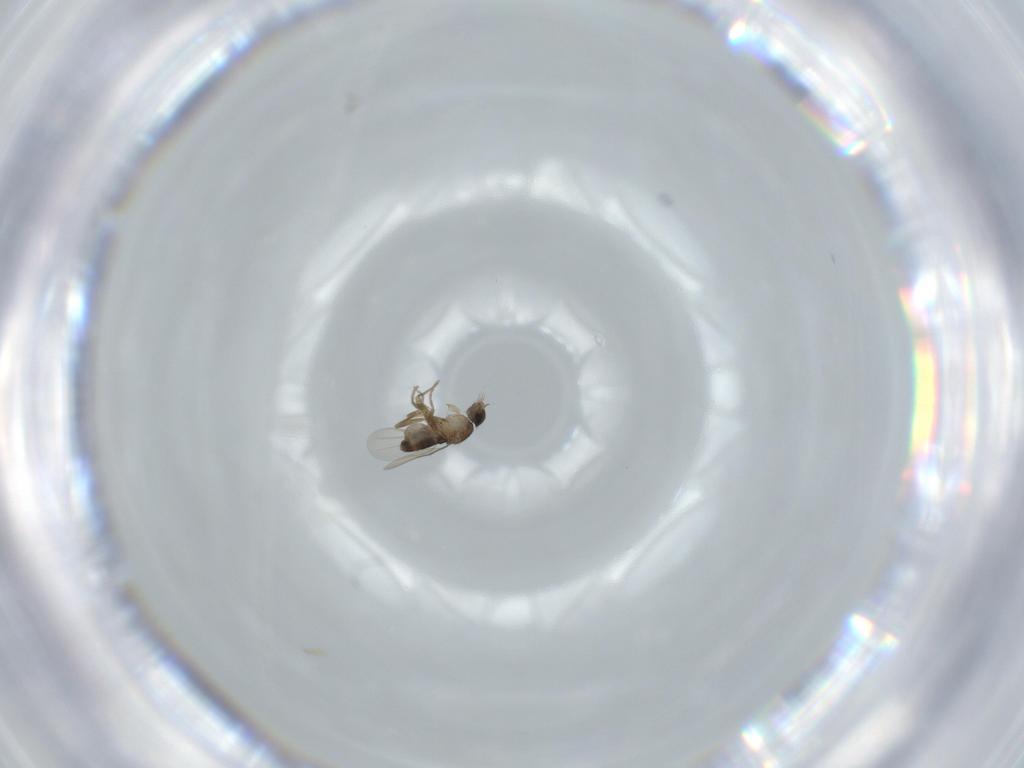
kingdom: Animalia
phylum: Arthropoda
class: Insecta
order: Diptera
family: Phoridae
